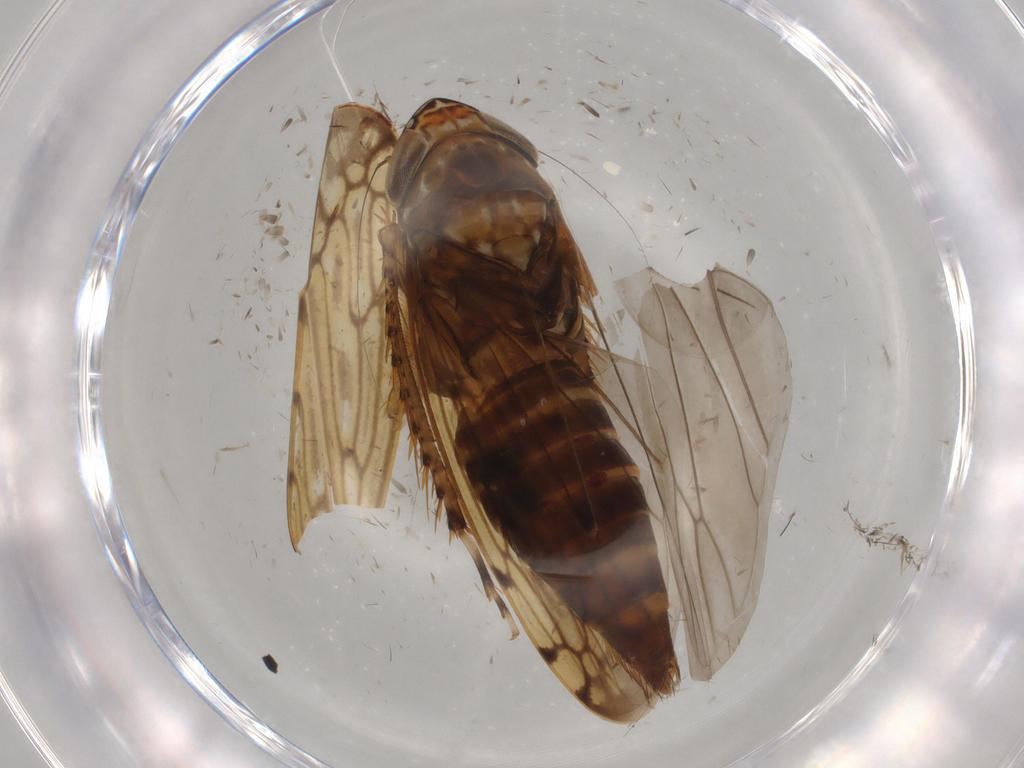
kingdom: Animalia
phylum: Arthropoda
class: Insecta
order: Hemiptera
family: Cicadellidae
